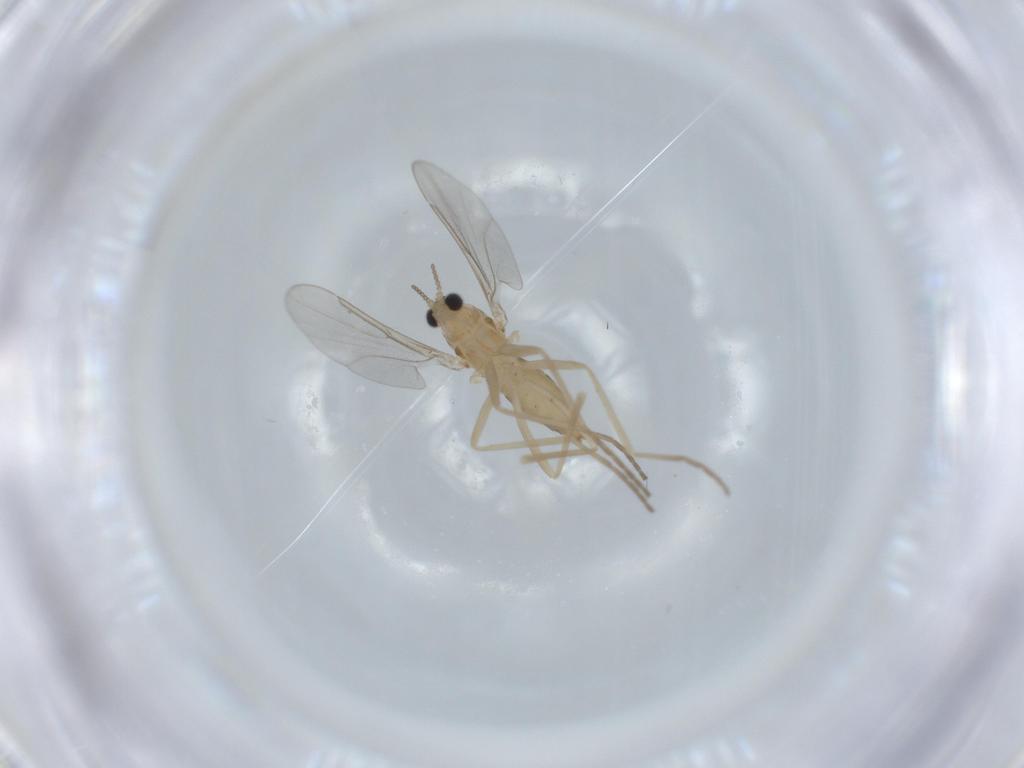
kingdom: Animalia
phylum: Arthropoda
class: Insecta
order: Diptera
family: Cecidomyiidae
